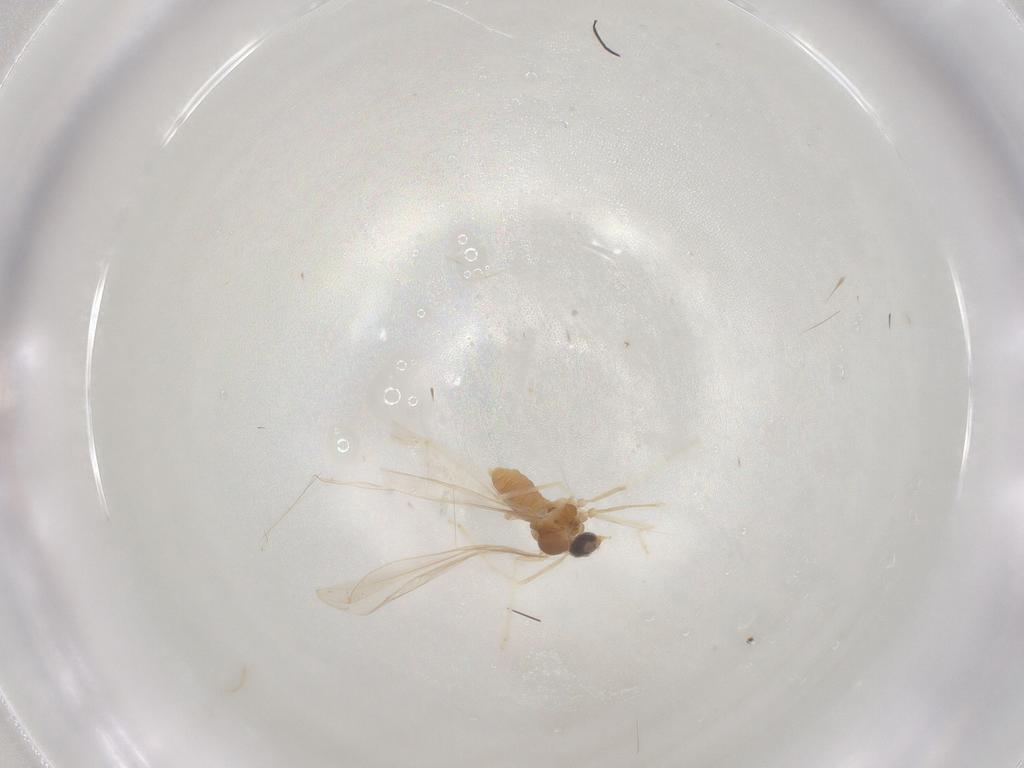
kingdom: Animalia
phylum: Arthropoda
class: Insecta
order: Diptera
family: Cecidomyiidae
